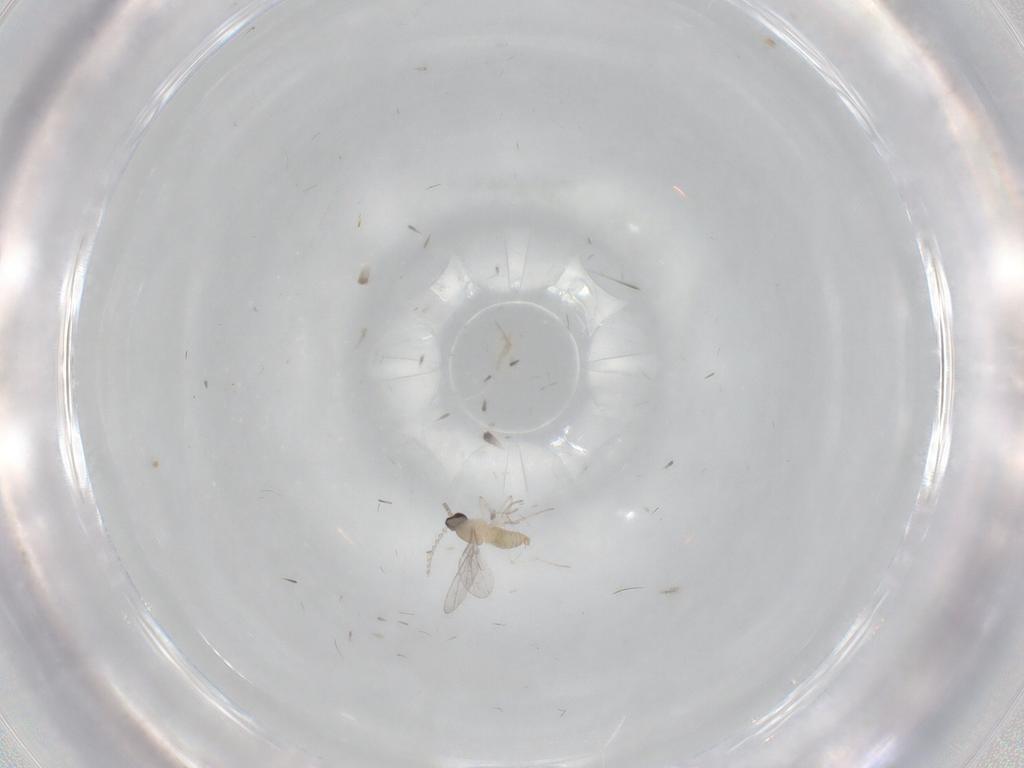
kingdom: Animalia
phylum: Arthropoda
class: Insecta
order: Diptera
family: Cecidomyiidae
